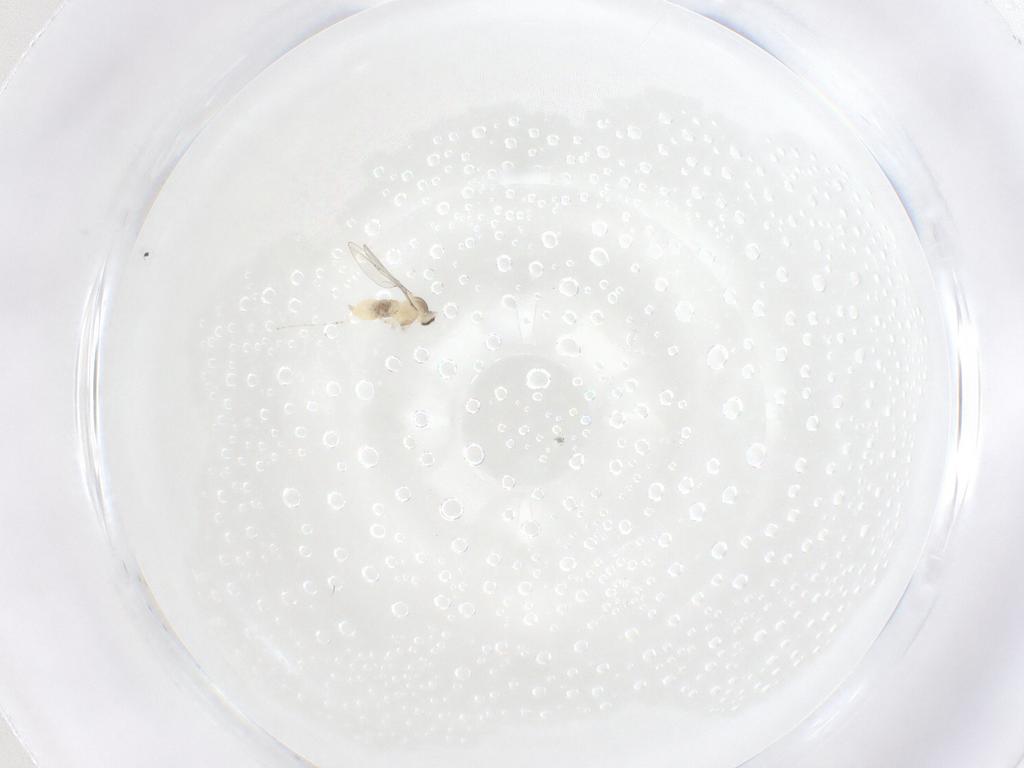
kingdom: Animalia
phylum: Arthropoda
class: Insecta
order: Diptera
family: Cecidomyiidae
